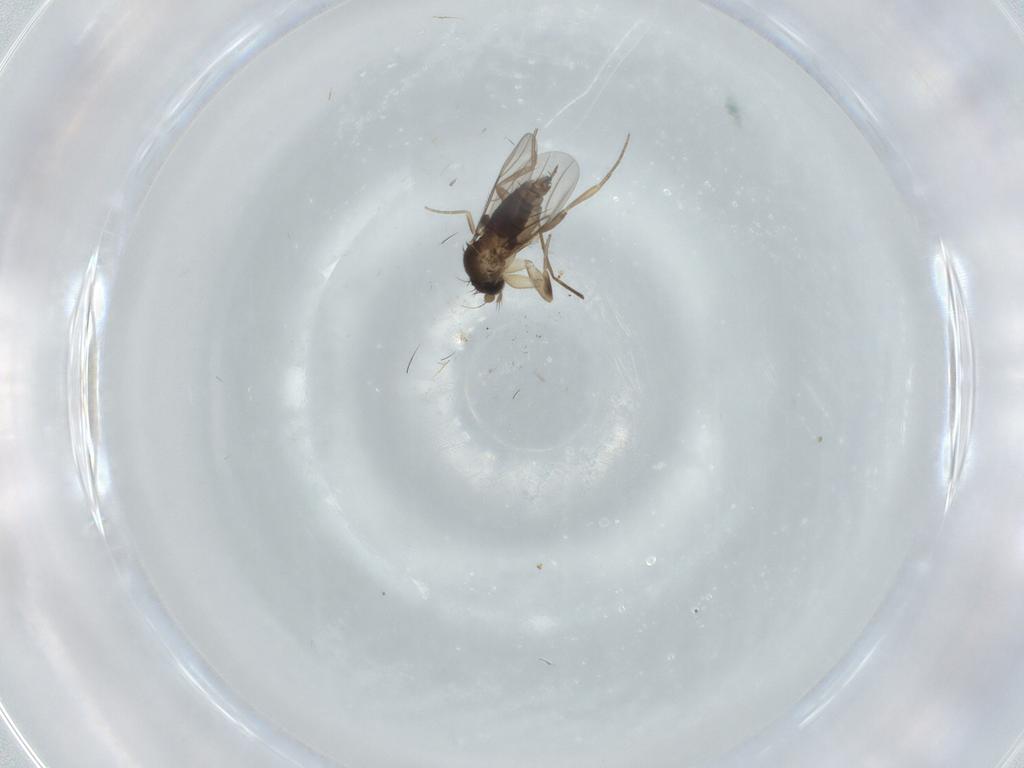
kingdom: Animalia
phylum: Arthropoda
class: Insecta
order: Diptera
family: Phoridae
